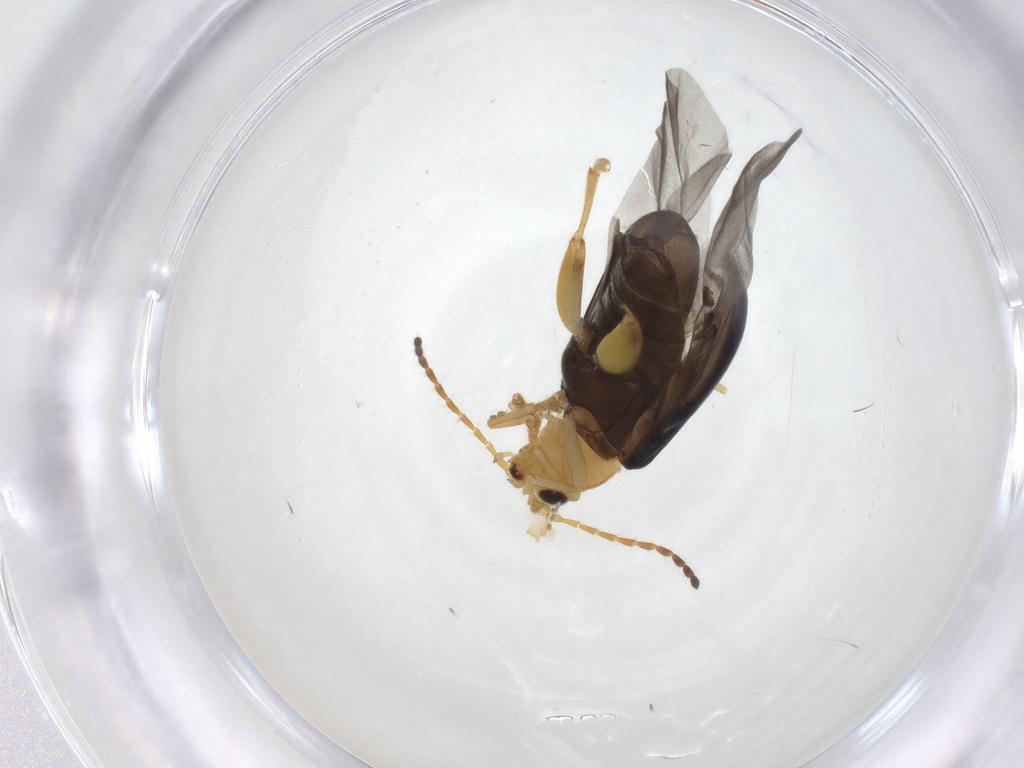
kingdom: Animalia
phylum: Arthropoda
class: Insecta
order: Coleoptera
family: Chrysomelidae
